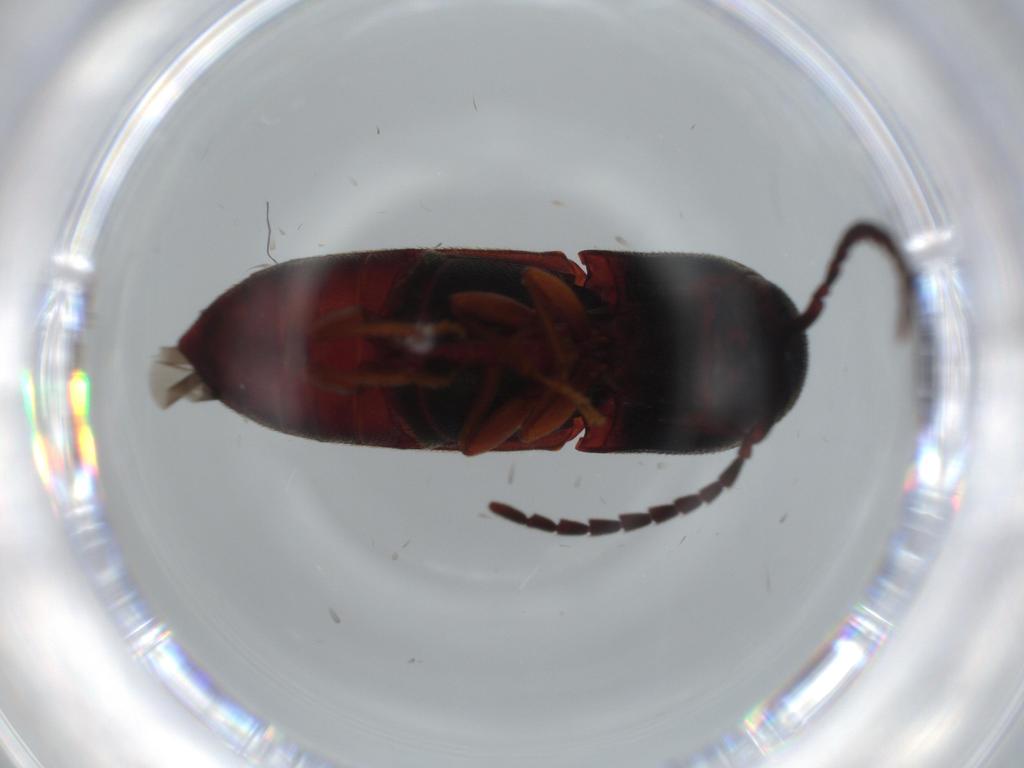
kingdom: Animalia
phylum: Arthropoda
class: Insecta
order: Coleoptera
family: Eucnemidae
